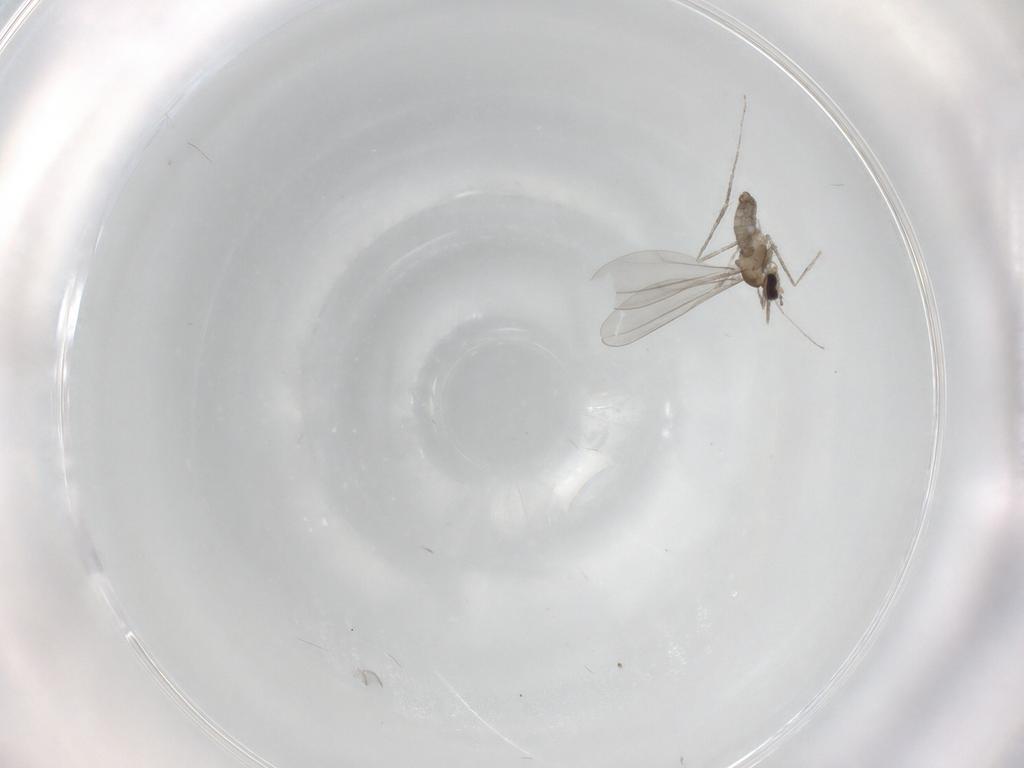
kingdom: Animalia
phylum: Arthropoda
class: Insecta
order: Diptera
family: Cecidomyiidae
